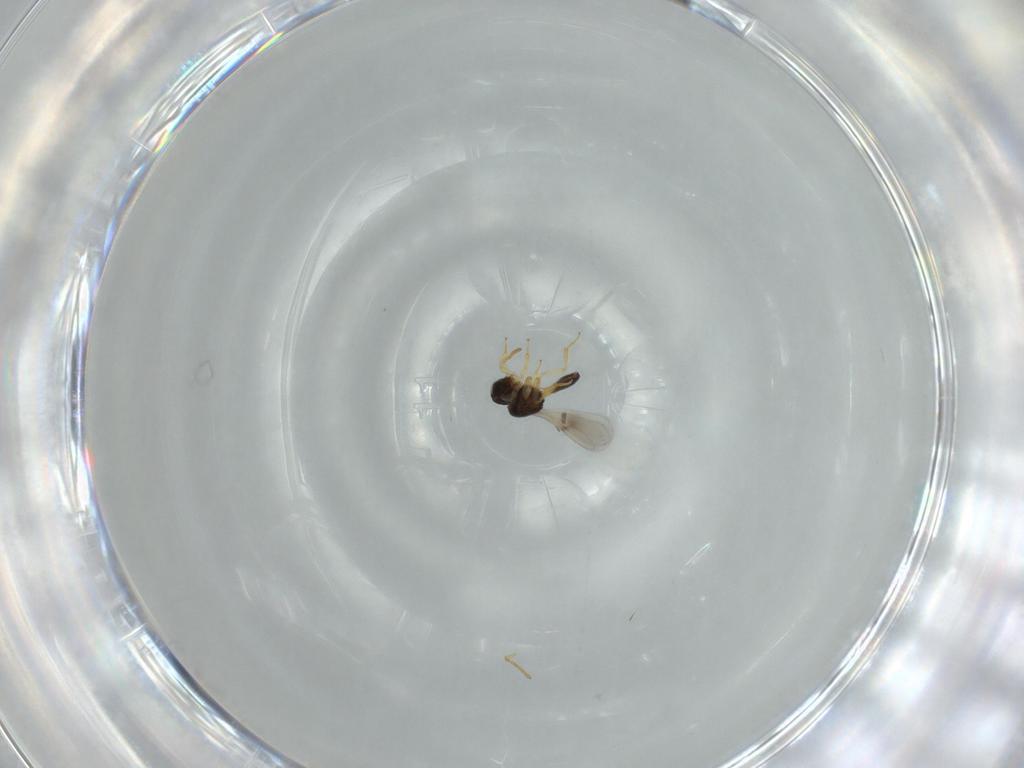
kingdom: Animalia
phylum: Arthropoda
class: Insecta
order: Hymenoptera
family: Scelionidae
